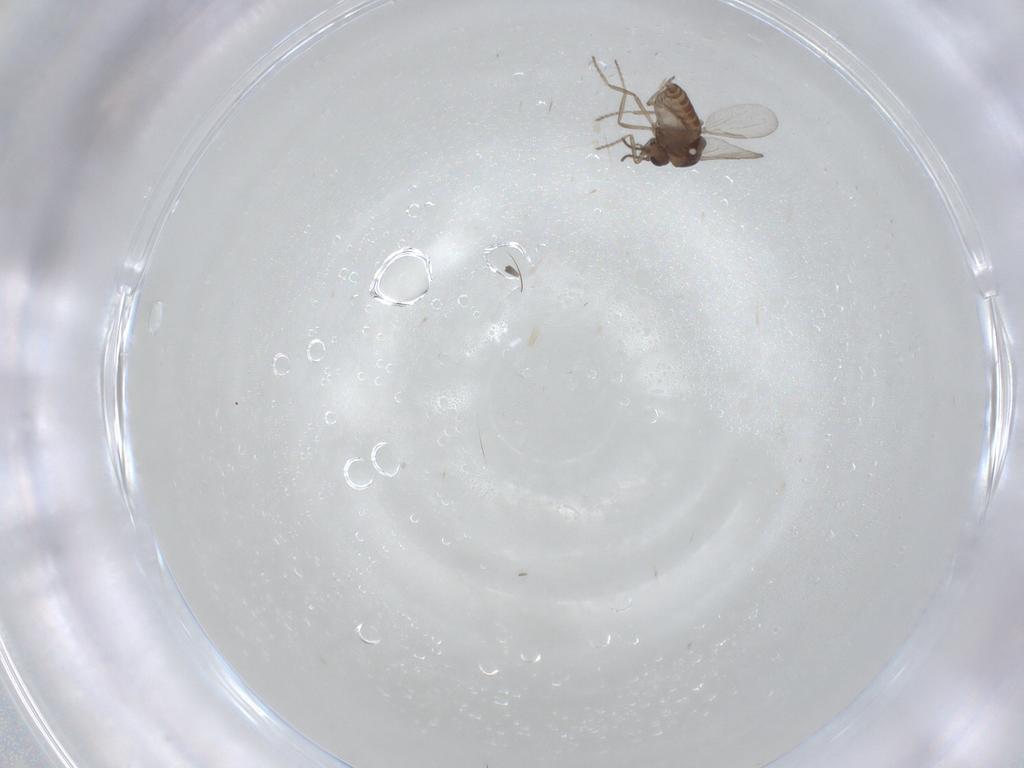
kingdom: Animalia
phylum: Arthropoda
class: Insecta
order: Diptera
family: Ceratopogonidae
